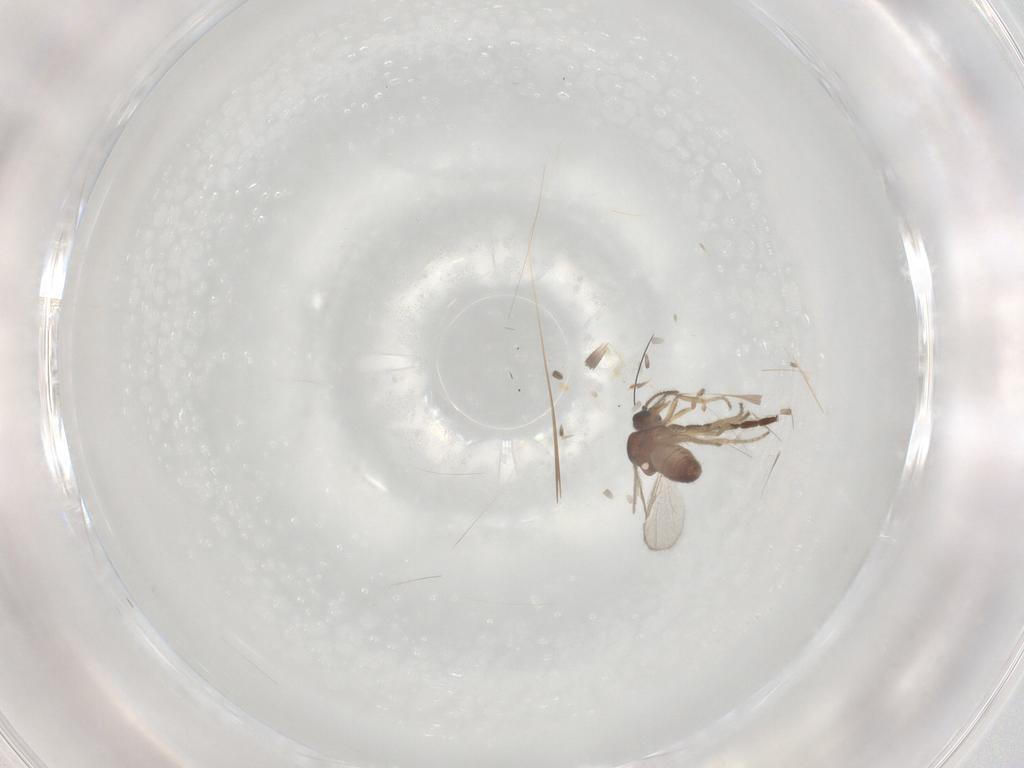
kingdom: Animalia
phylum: Arthropoda
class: Insecta
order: Diptera
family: Ceratopogonidae
